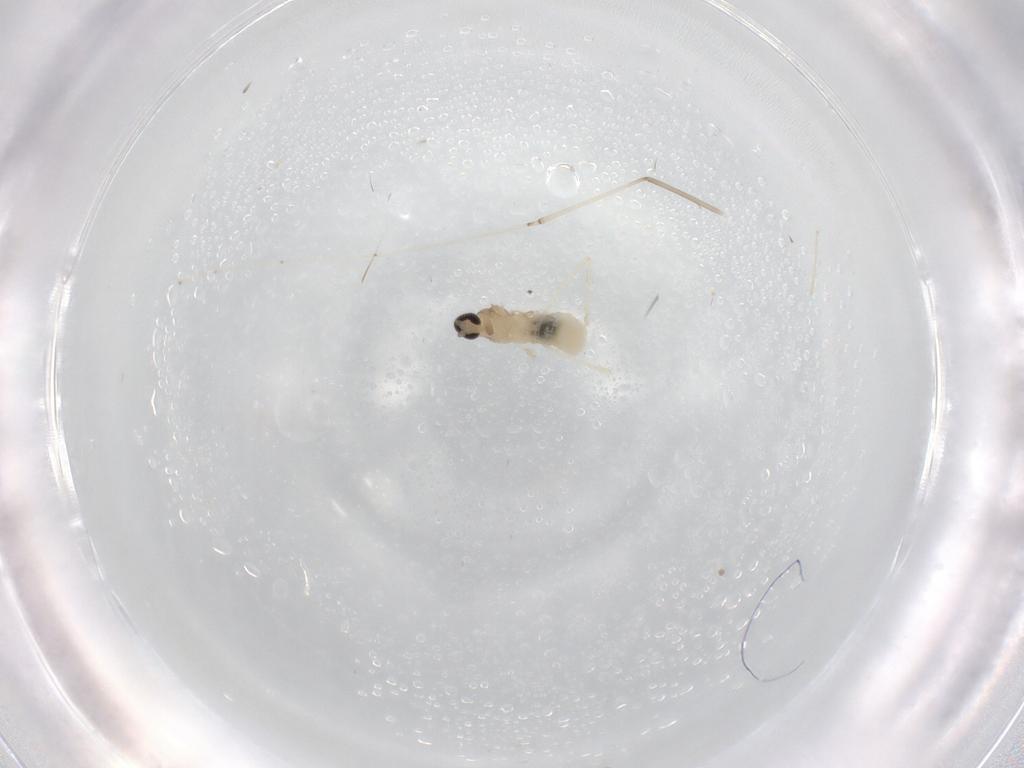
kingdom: Animalia
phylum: Arthropoda
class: Insecta
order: Diptera
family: Cecidomyiidae
